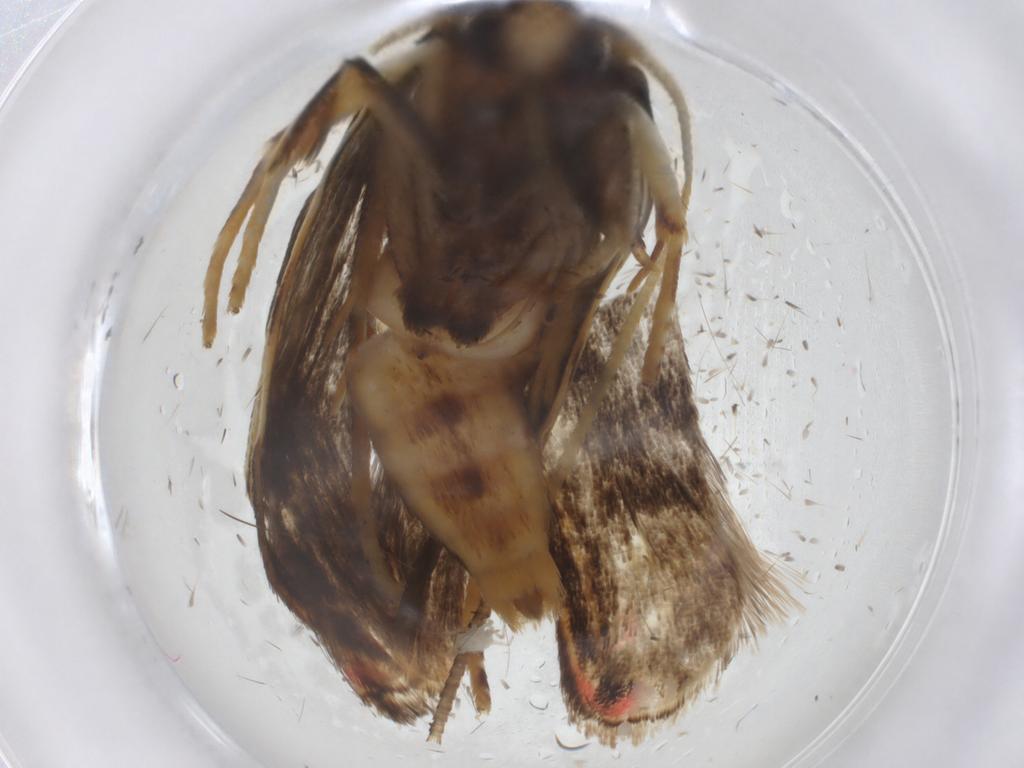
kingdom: Animalia
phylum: Arthropoda
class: Insecta
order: Lepidoptera
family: Depressariidae
